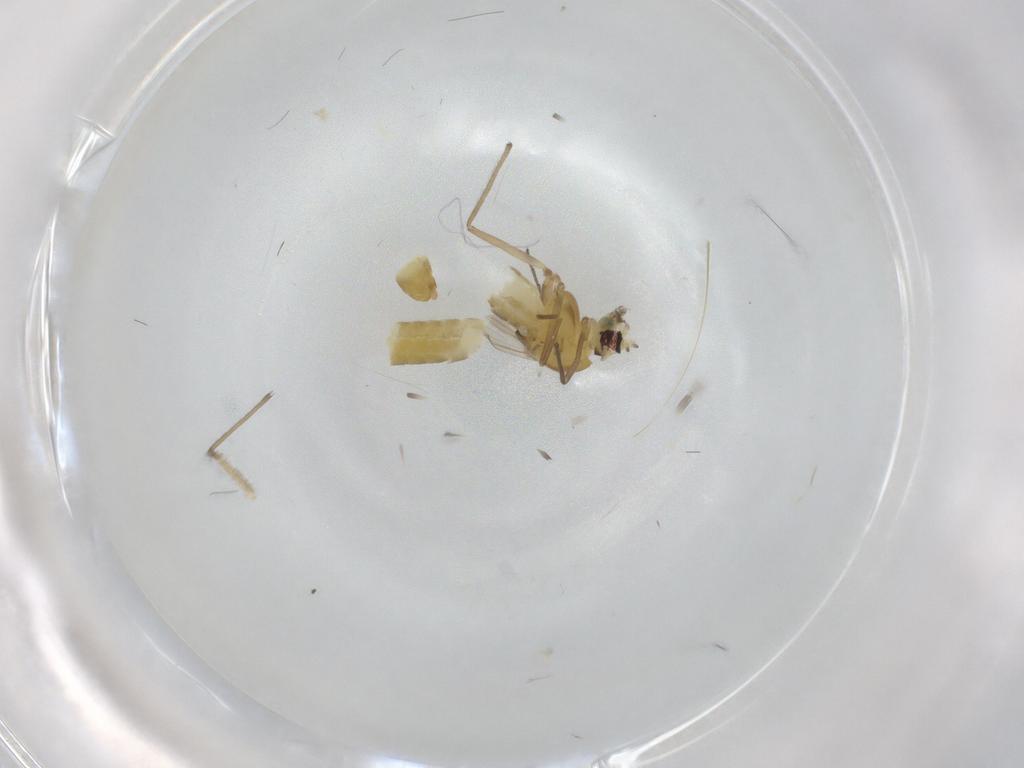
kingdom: Animalia
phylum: Arthropoda
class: Insecta
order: Diptera
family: Chironomidae
